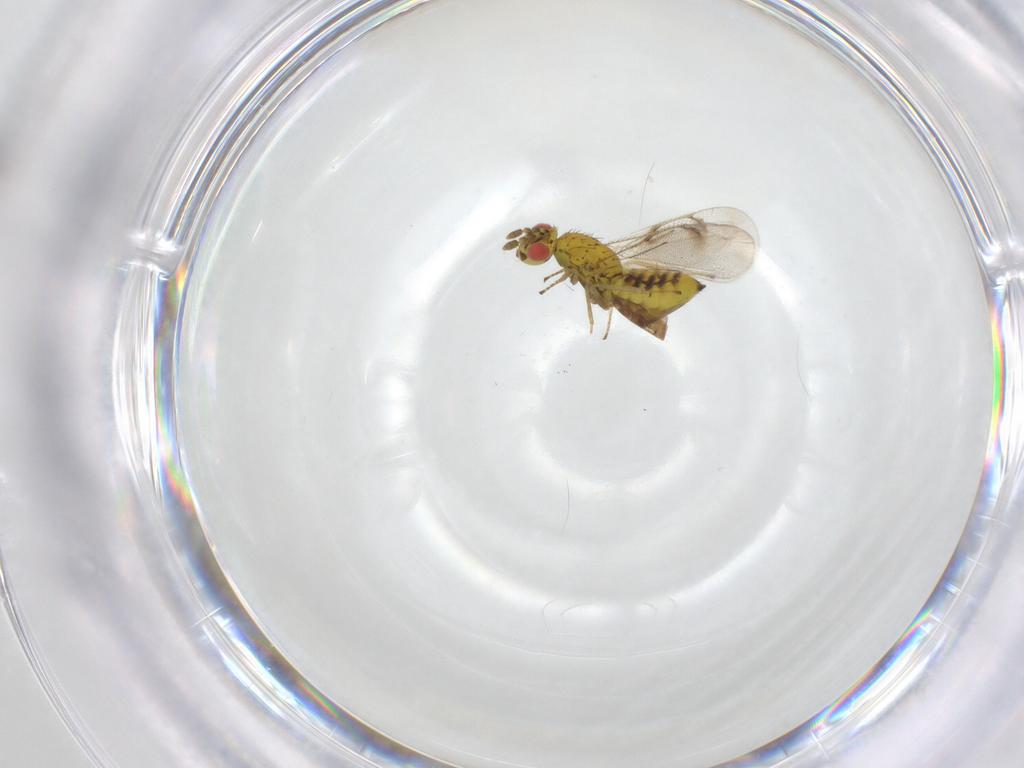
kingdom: Animalia
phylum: Arthropoda
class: Insecta
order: Hymenoptera
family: Eulophidae
